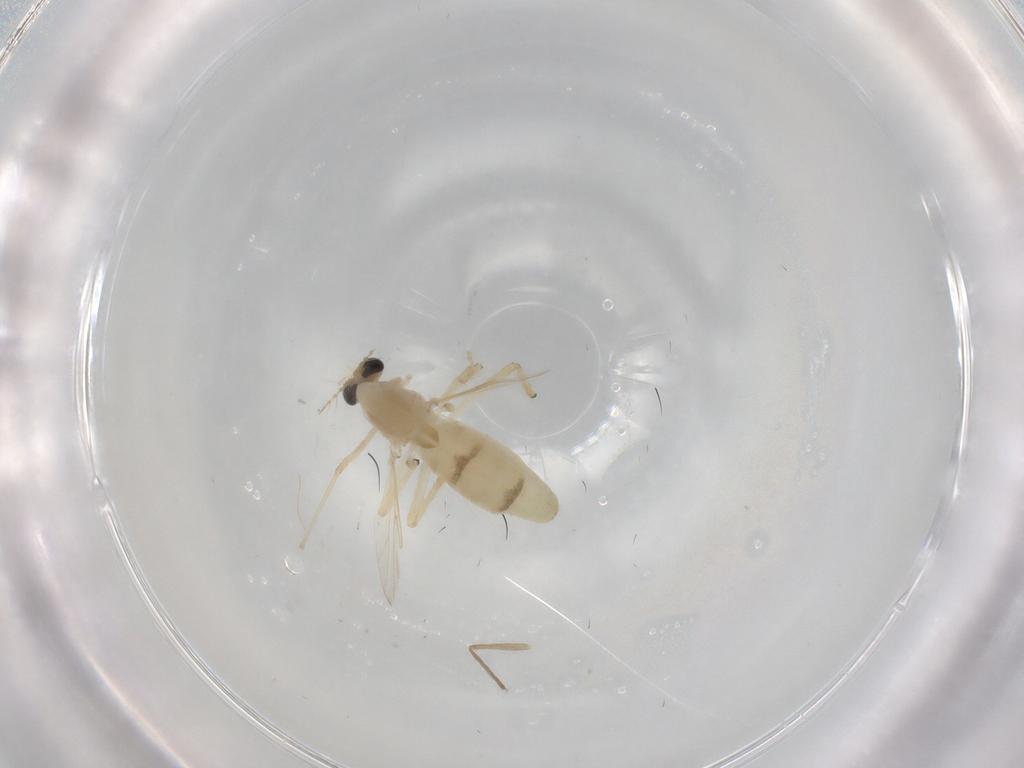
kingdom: Animalia
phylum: Arthropoda
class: Insecta
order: Diptera
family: Chironomidae
